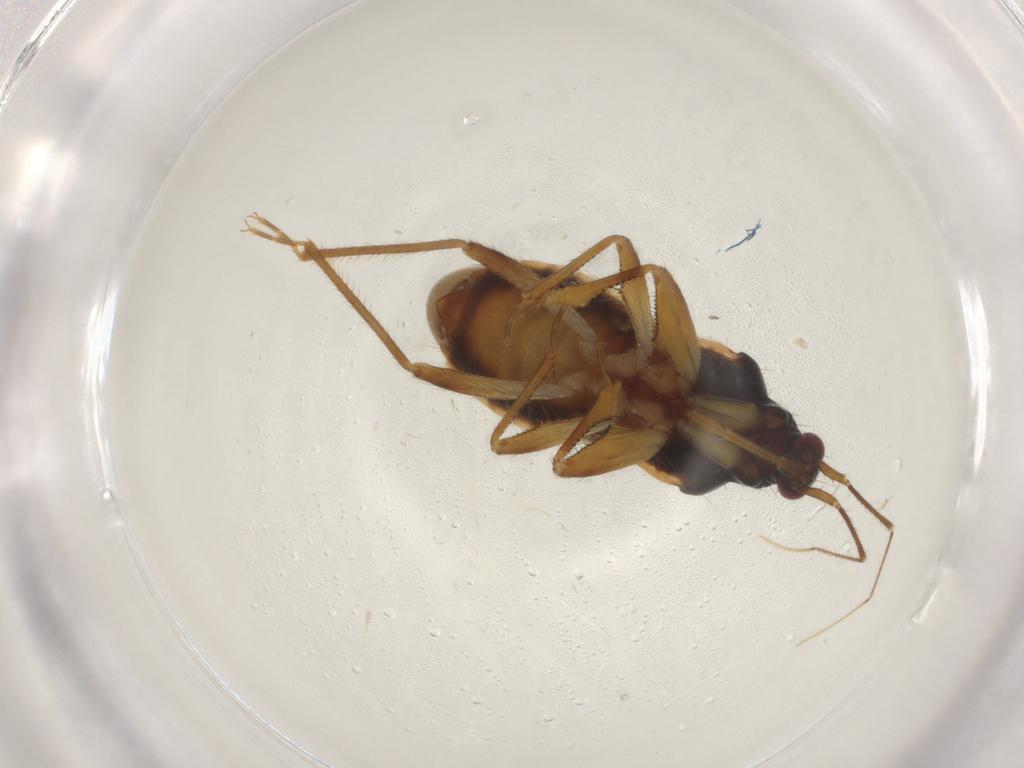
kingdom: Animalia
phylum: Arthropoda
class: Insecta
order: Hemiptera
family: Nabidae
